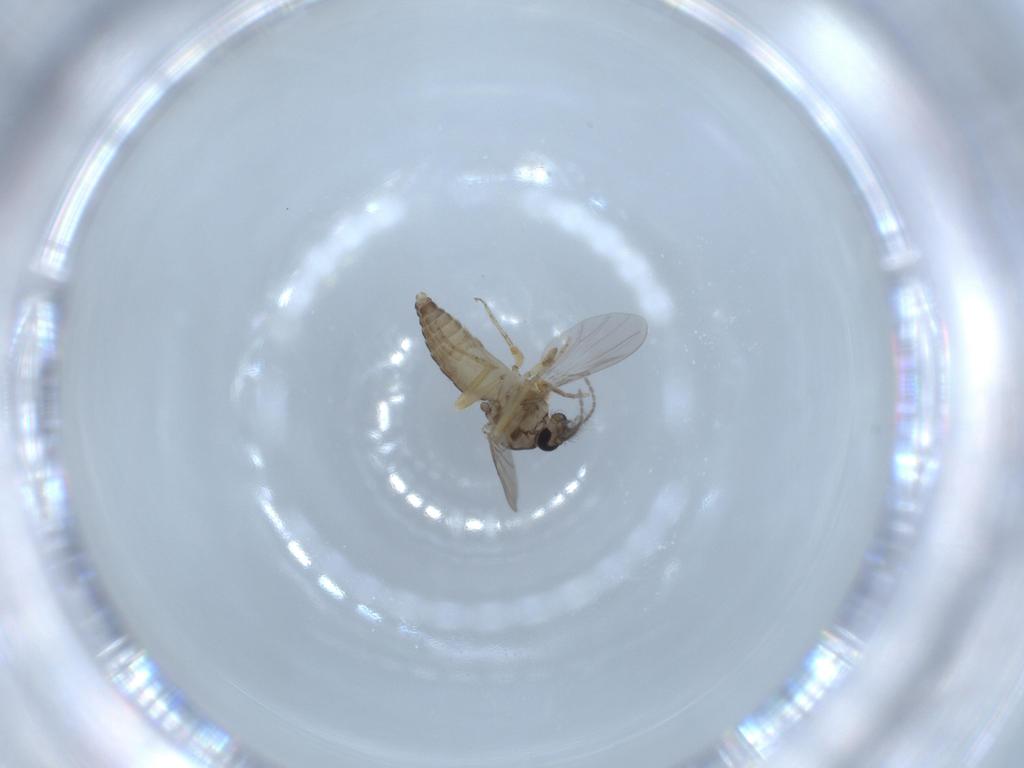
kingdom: Animalia
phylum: Arthropoda
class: Insecta
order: Diptera
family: Ceratopogonidae
